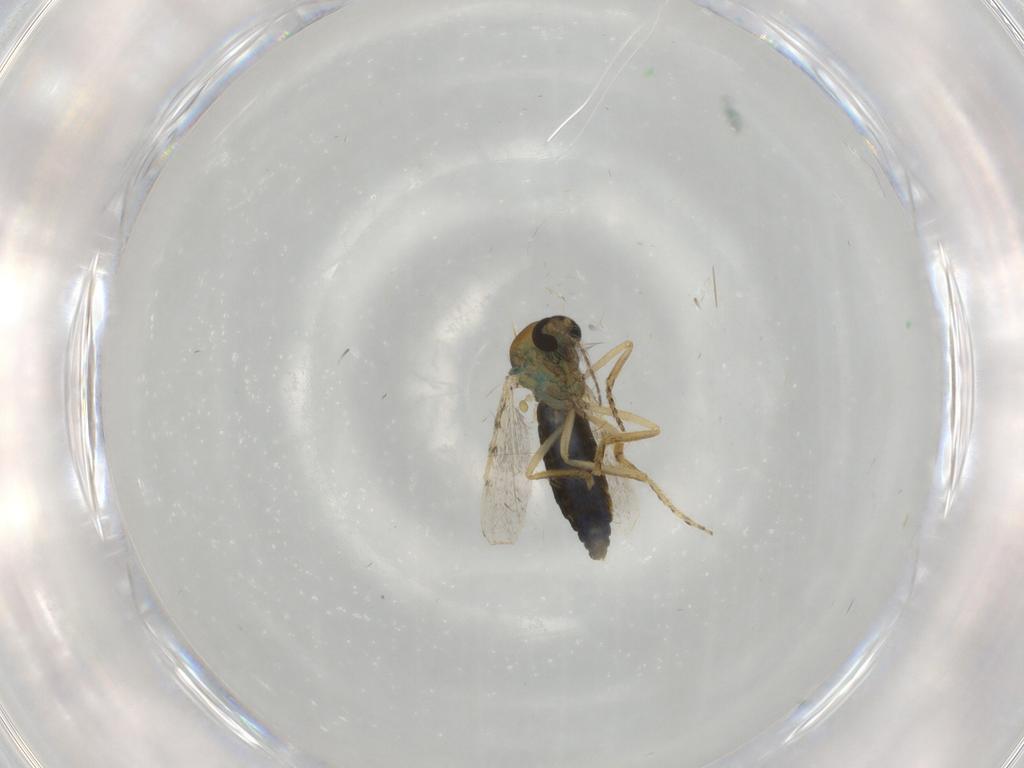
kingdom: Animalia
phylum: Arthropoda
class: Insecta
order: Diptera
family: Ceratopogonidae
